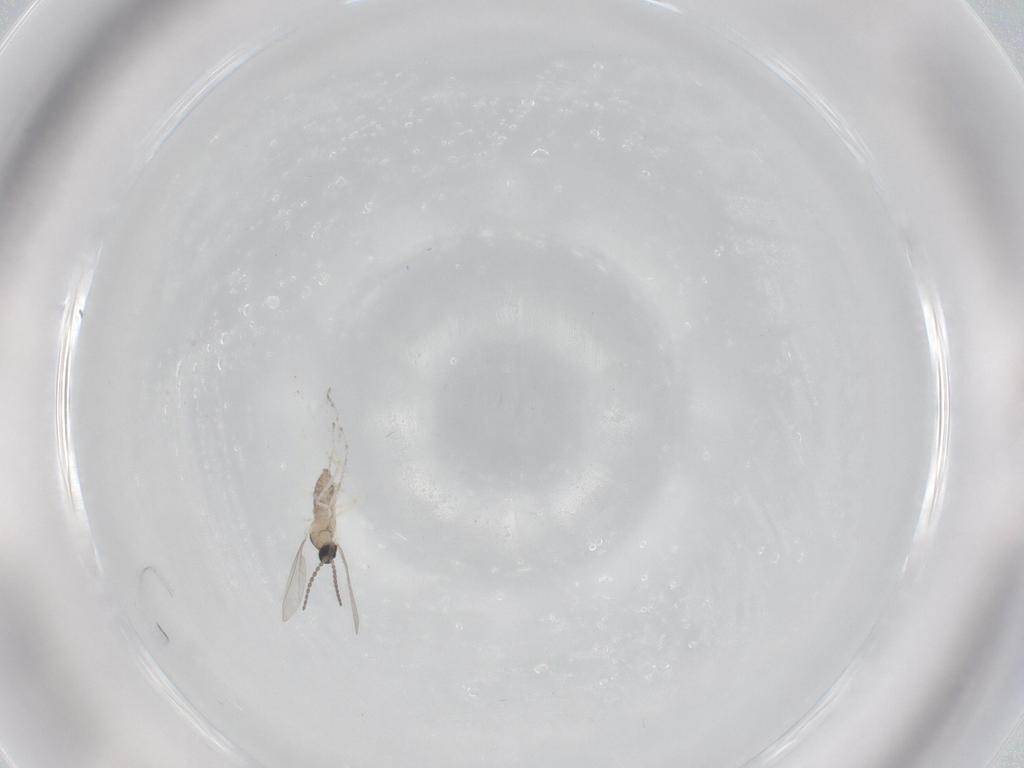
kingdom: Animalia
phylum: Arthropoda
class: Insecta
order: Diptera
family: Cecidomyiidae
